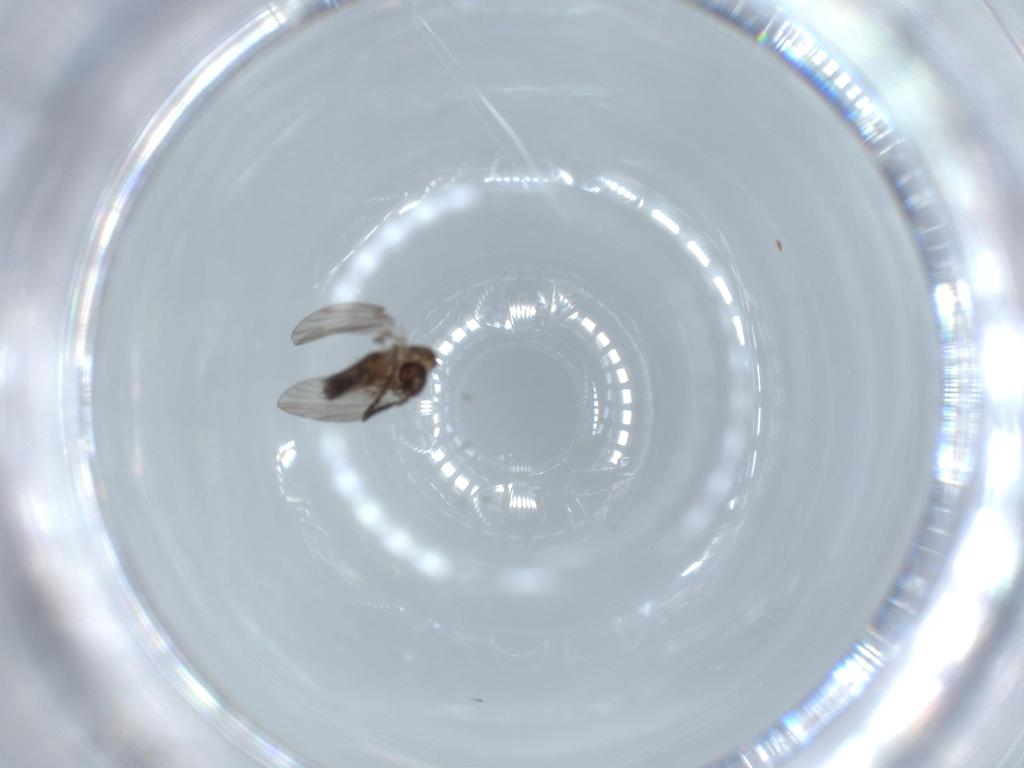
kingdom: Animalia
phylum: Arthropoda
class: Insecta
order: Diptera
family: Psychodidae
